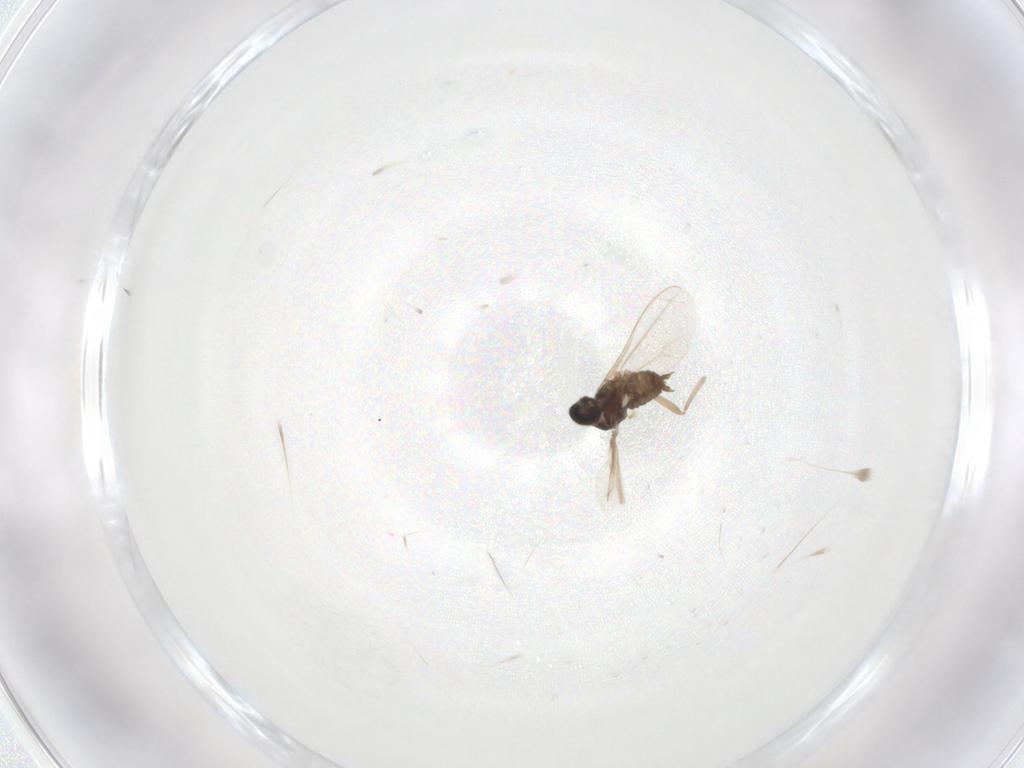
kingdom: Animalia
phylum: Arthropoda
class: Insecta
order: Diptera
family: Cecidomyiidae
